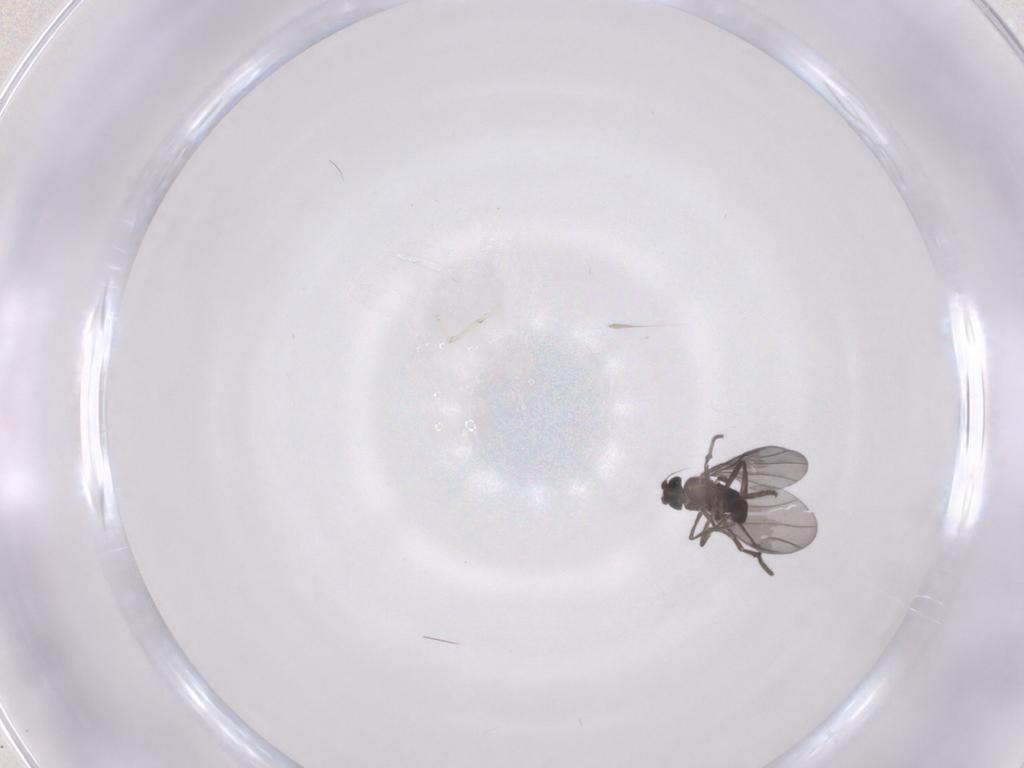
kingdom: Animalia
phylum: Arthropoda
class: Insecta
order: Diptera
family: Phoridae
